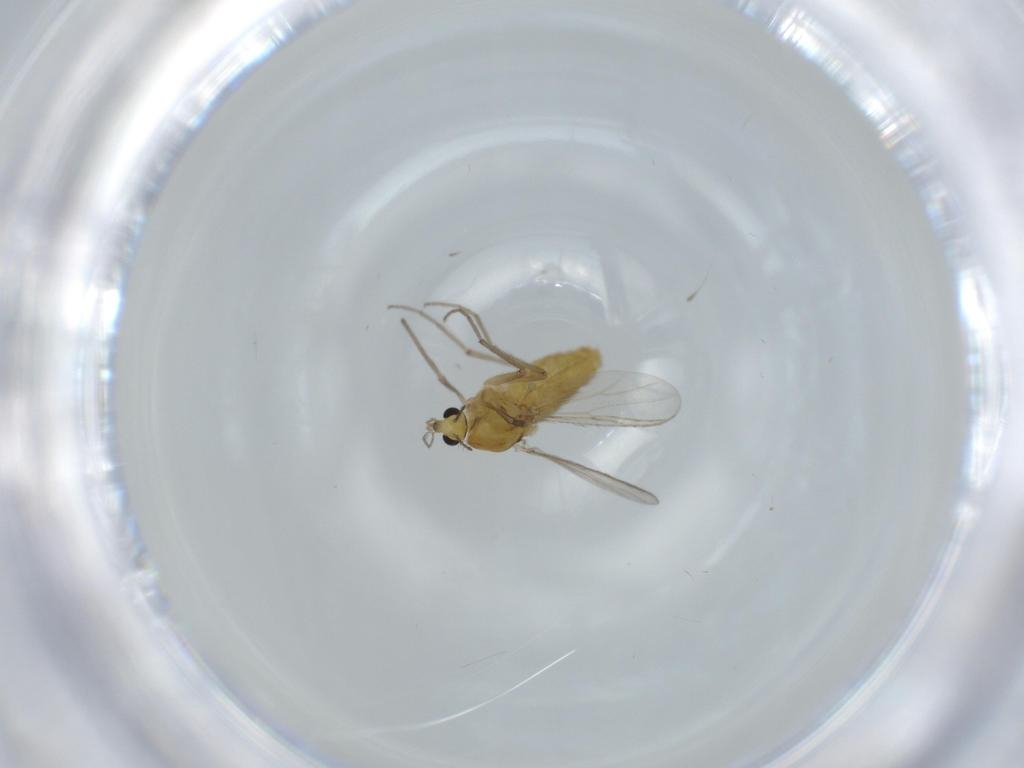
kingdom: Animalia
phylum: Arthropoda
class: Insecta
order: Diptera
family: Chironomidae
